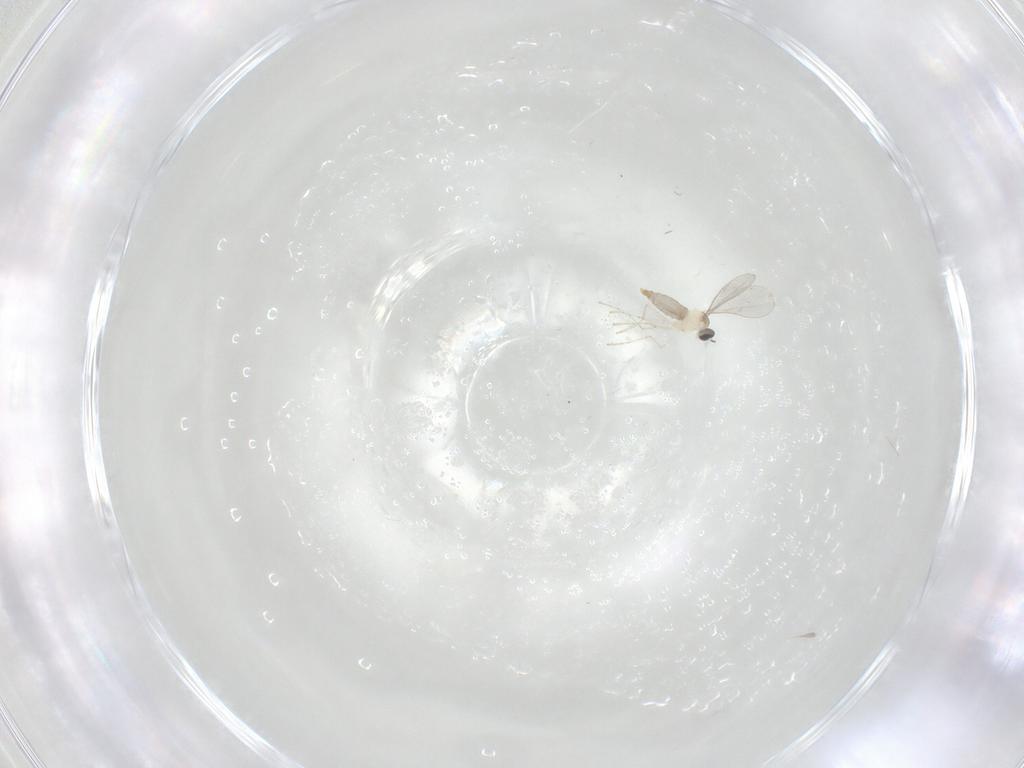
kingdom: Animalia
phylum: Arthropoda
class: Insecta
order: Diptera
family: Cecidomyiidae
